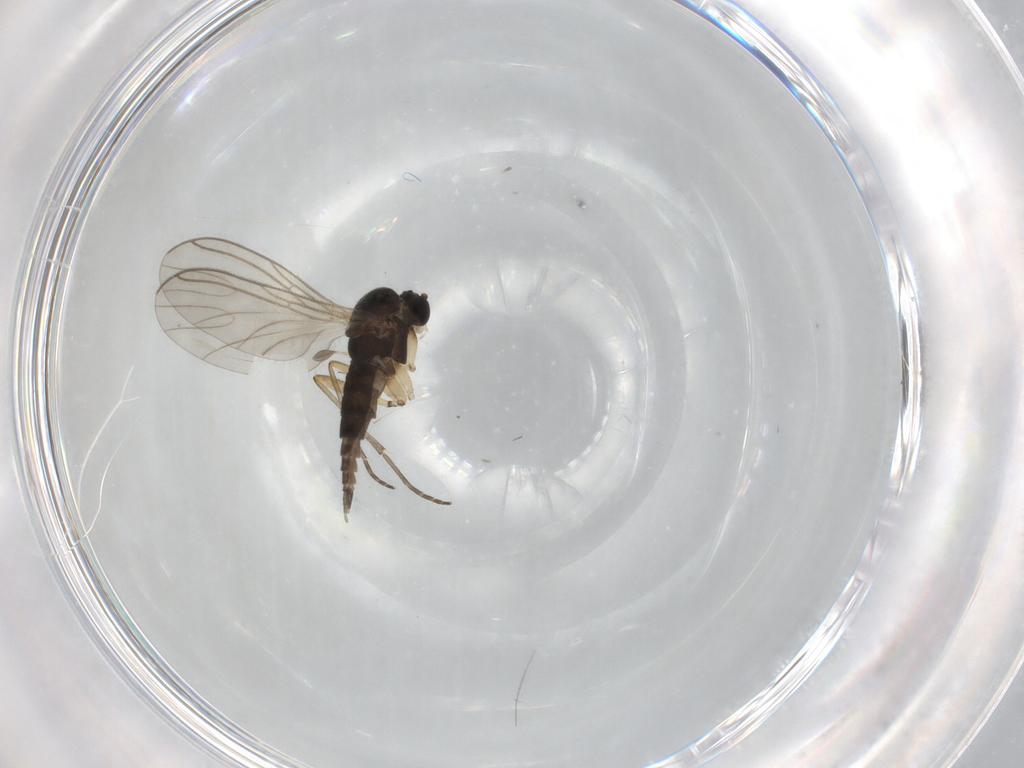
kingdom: Animalia
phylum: Arthropoda
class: Insecta
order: Diptera
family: Sciaridae
